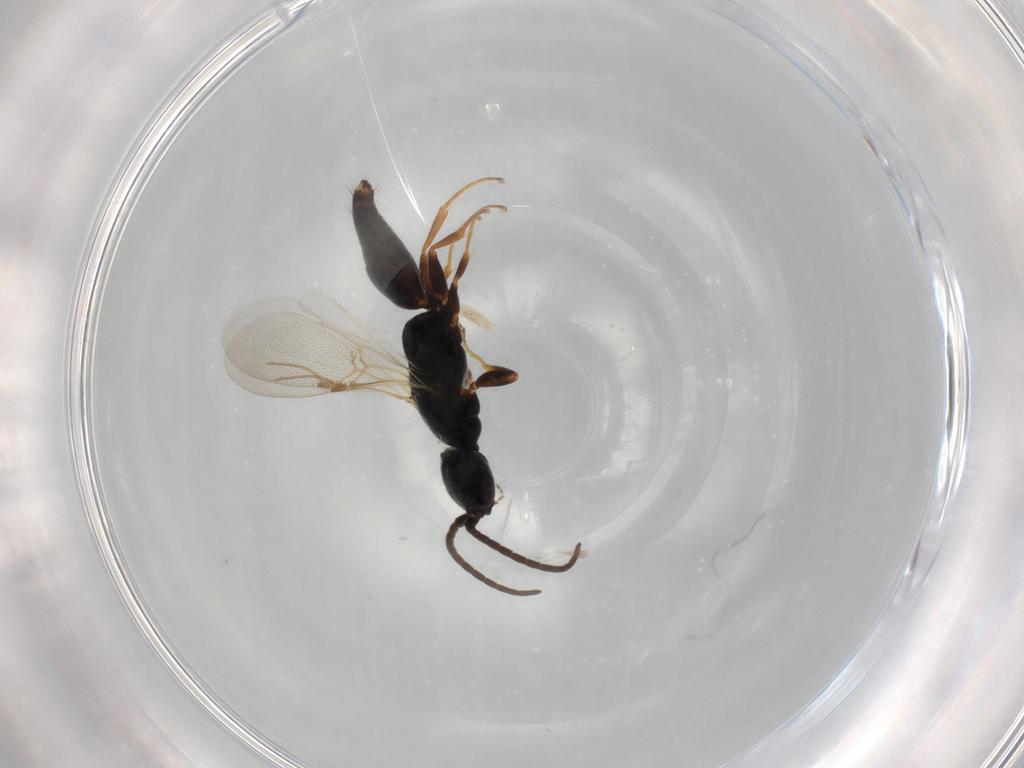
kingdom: Animalia
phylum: Arthropoda
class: Insecta
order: Hymenoptera
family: Bethylidae
